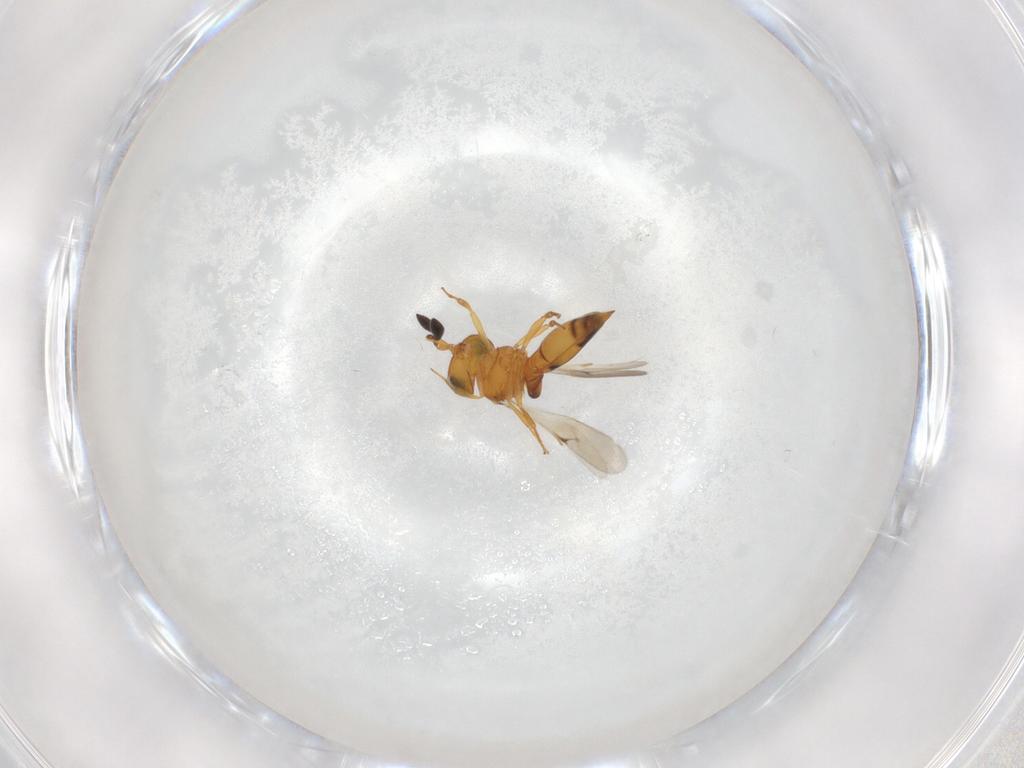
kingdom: Animalia
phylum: Arthropoda
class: Insecta
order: Hymenoptera
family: Scelionidae
